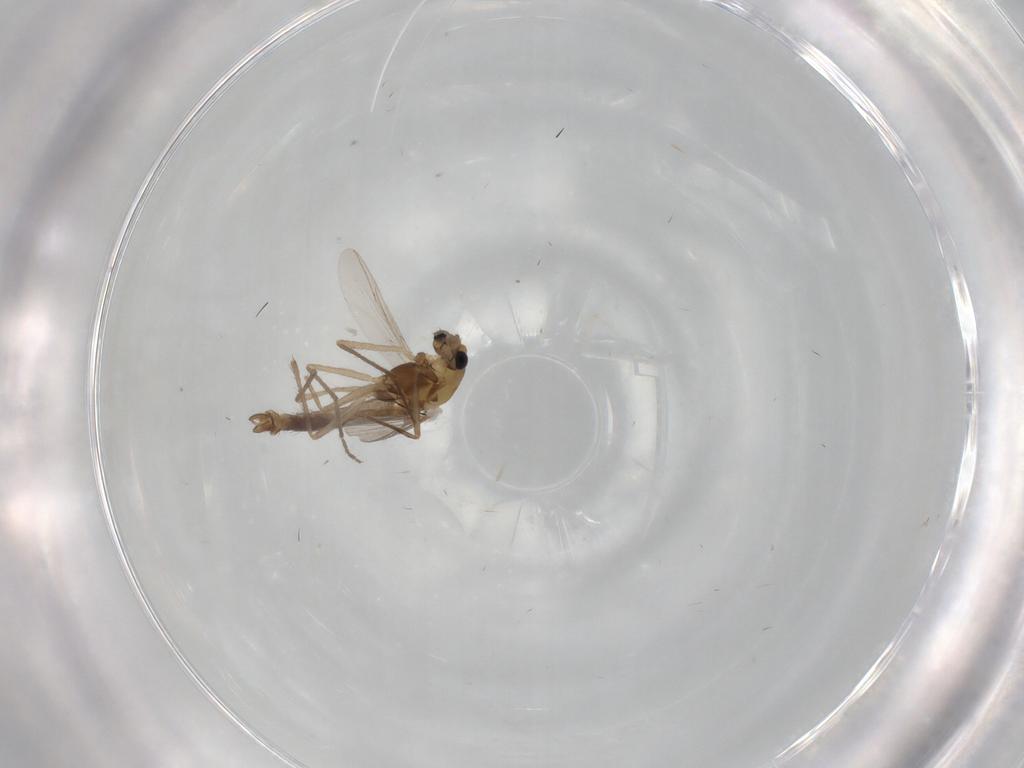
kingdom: Animalia
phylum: Arthropoda
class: Insecta
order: Diptera
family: Chironomidae
